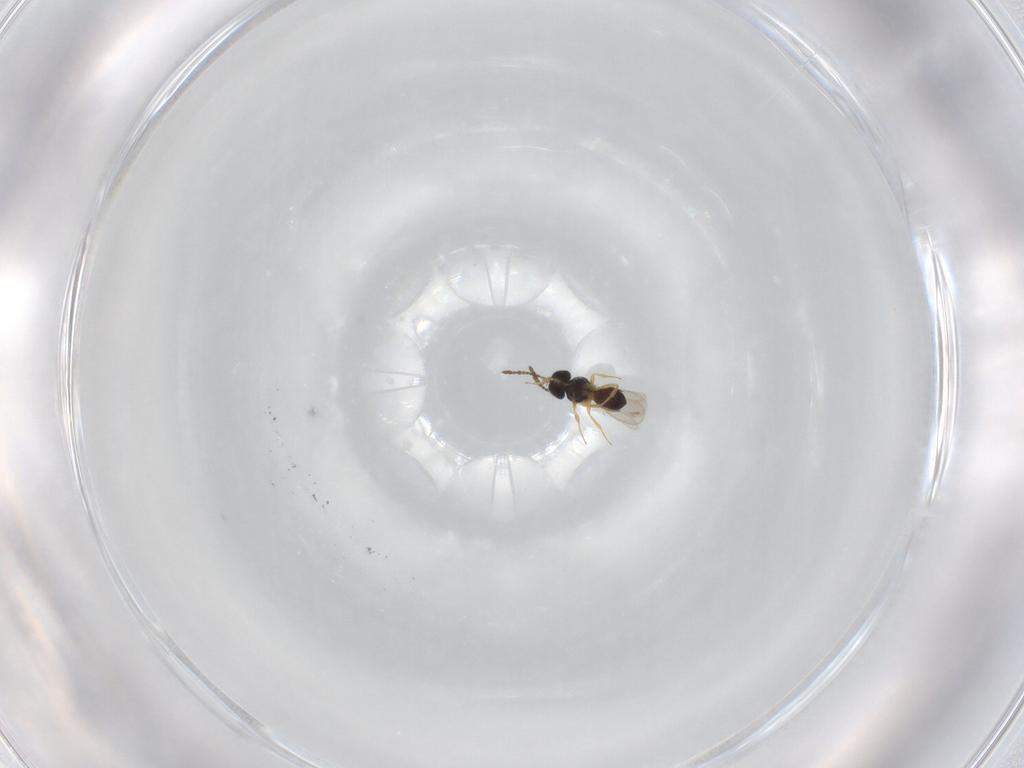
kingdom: Animalia
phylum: Arthropoda
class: Insecta
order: Hymenoptera
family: Scelionidae
